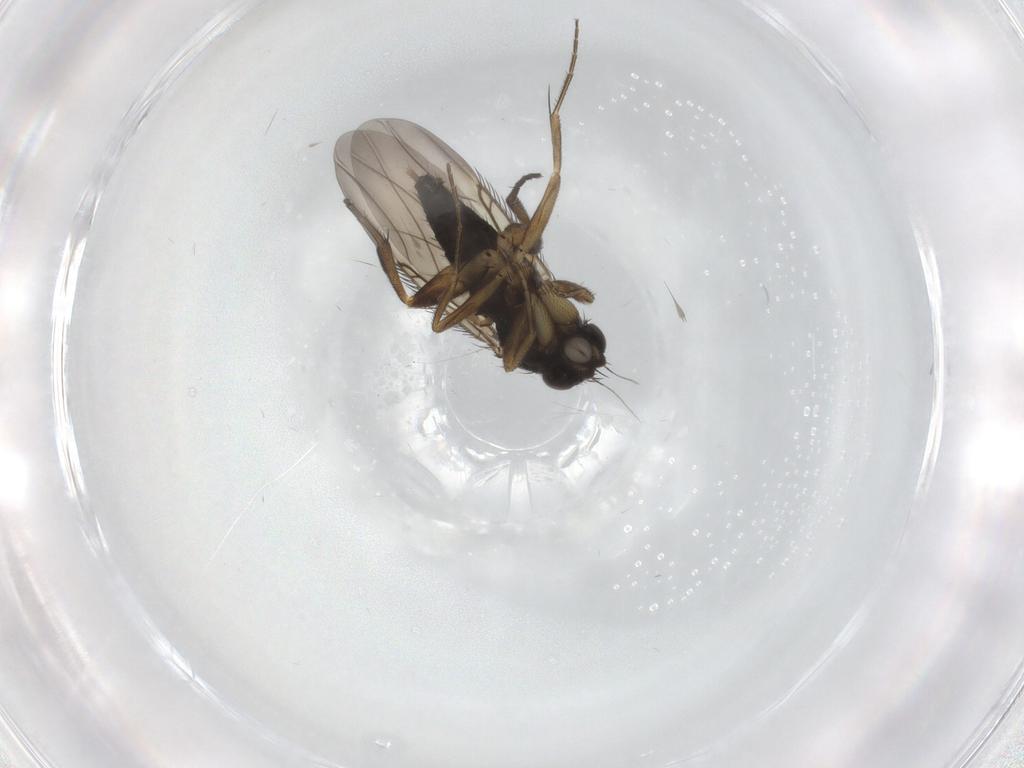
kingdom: Animalia
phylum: Arthropoda
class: Insecta
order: Diptera
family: Phoridae
